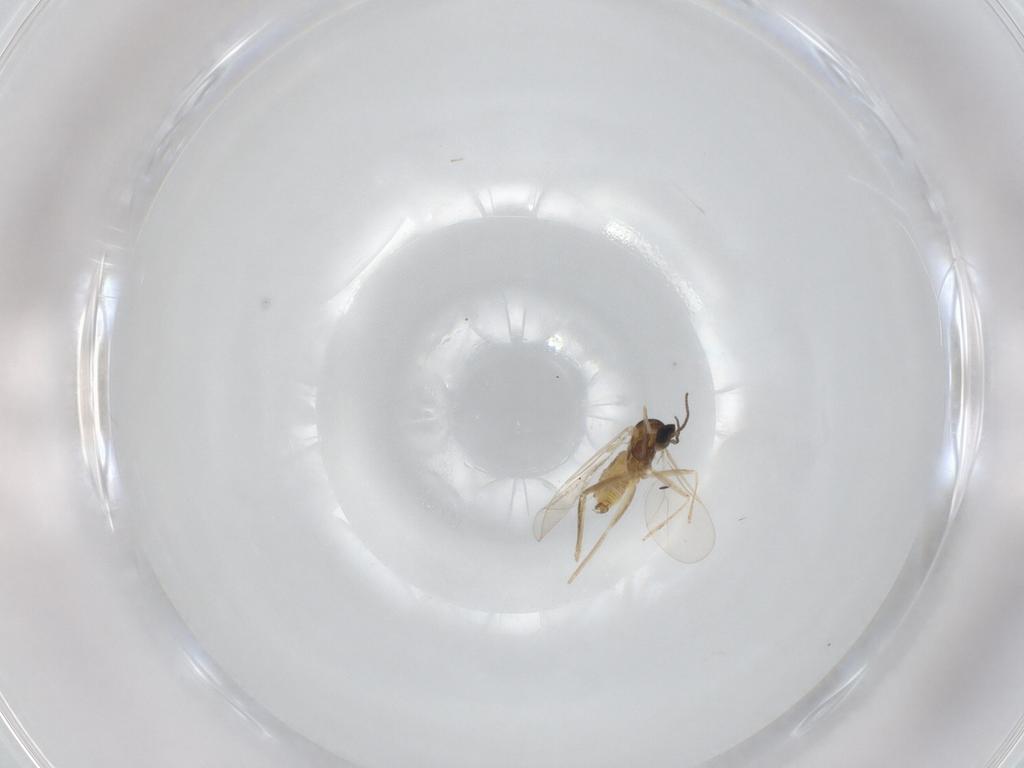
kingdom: Animalia
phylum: Arthropoda
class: Insecta
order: Diptera
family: Cecidomyiidae
